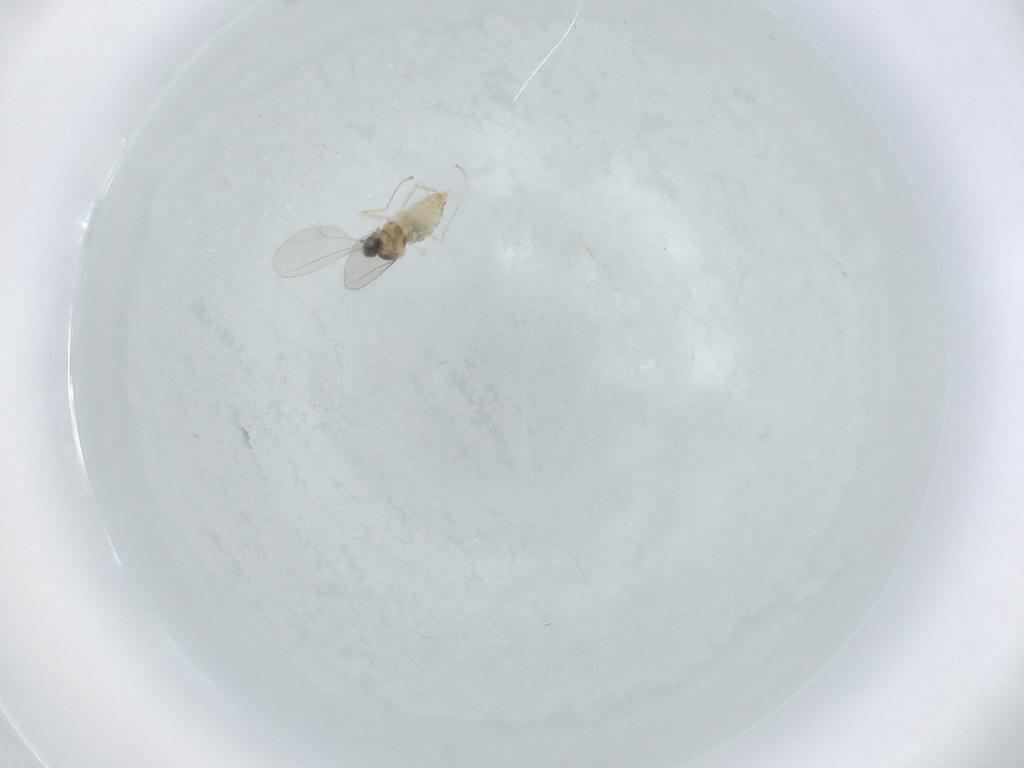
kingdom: Animalia
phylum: Arthropoda
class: Insecta
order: Diptera
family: Cecidomyiidae
